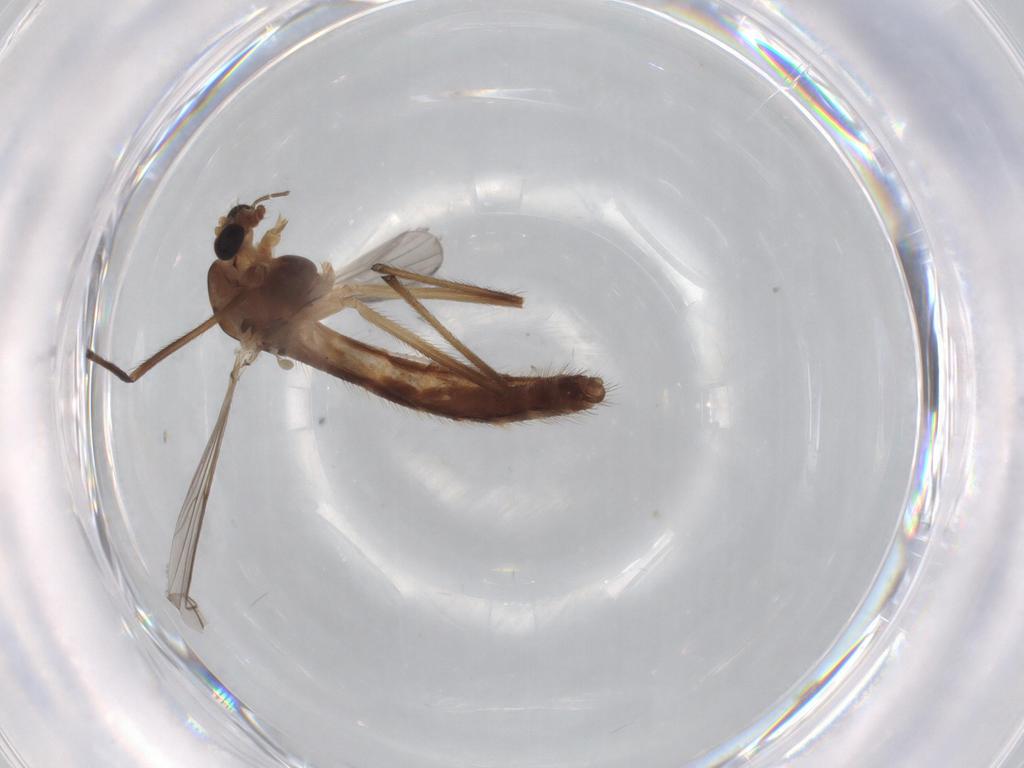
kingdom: Animalia
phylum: Arthropoda
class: Insecta
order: Diptera
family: Chironomidae
